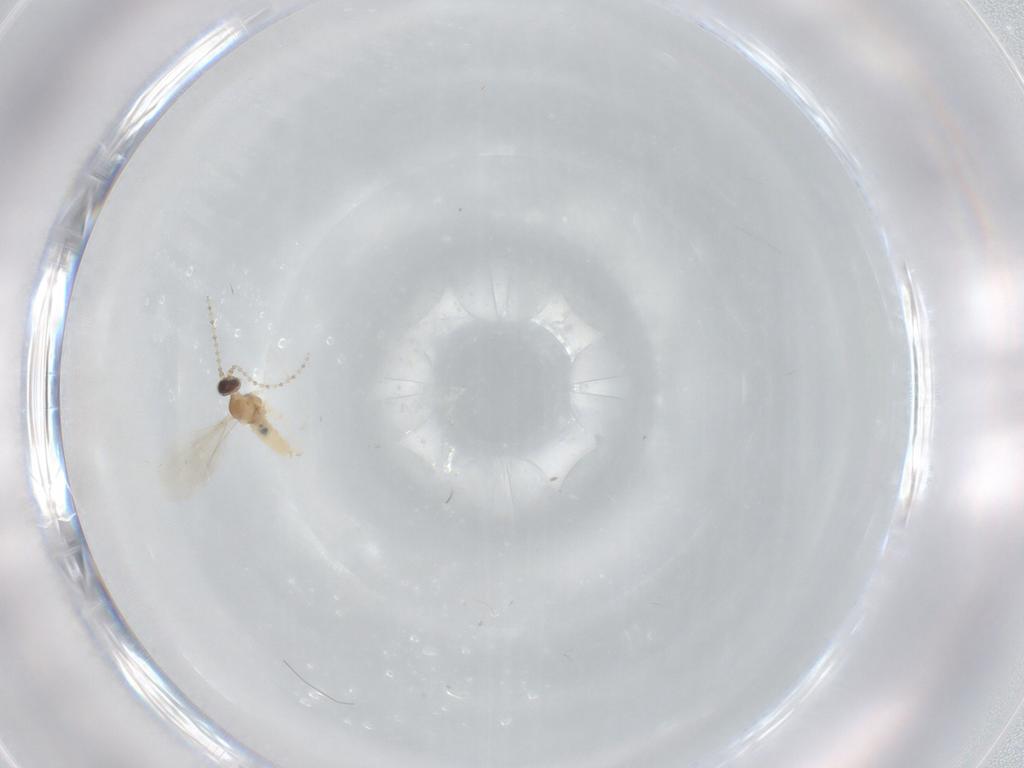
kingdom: Animalia
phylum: Arthropoda
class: Insecta
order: Diptera
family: Cecidomyiidae
